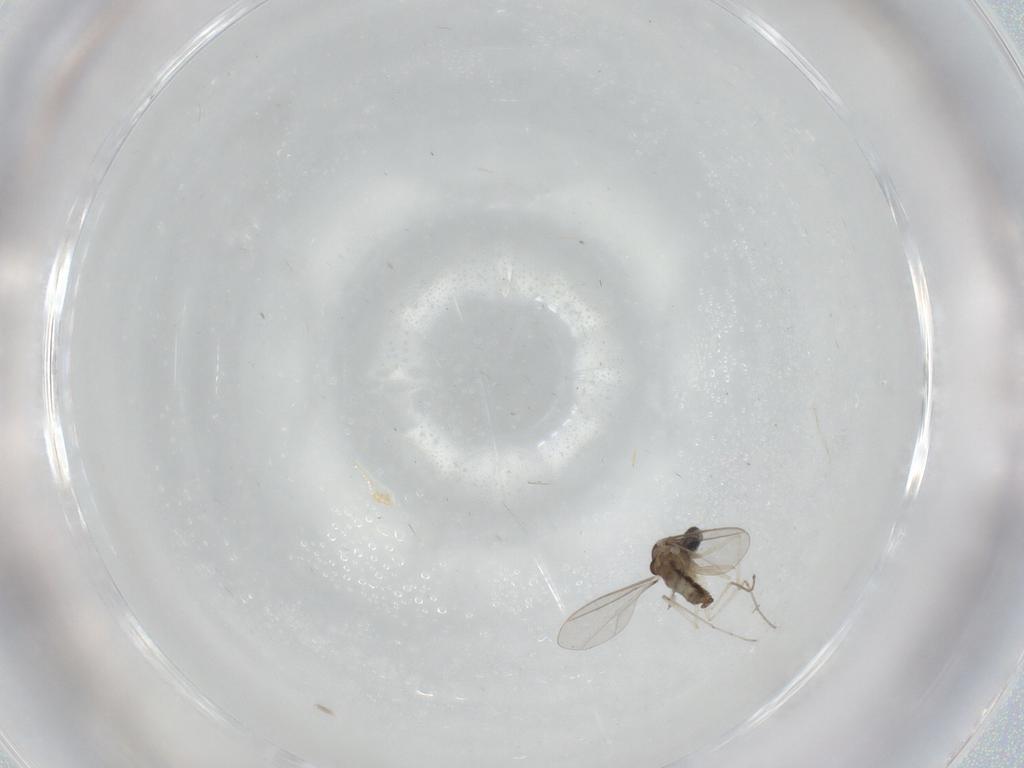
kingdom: Animalia
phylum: Arthropoda
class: Insecta
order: Diptera
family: Cecidomyiidae
